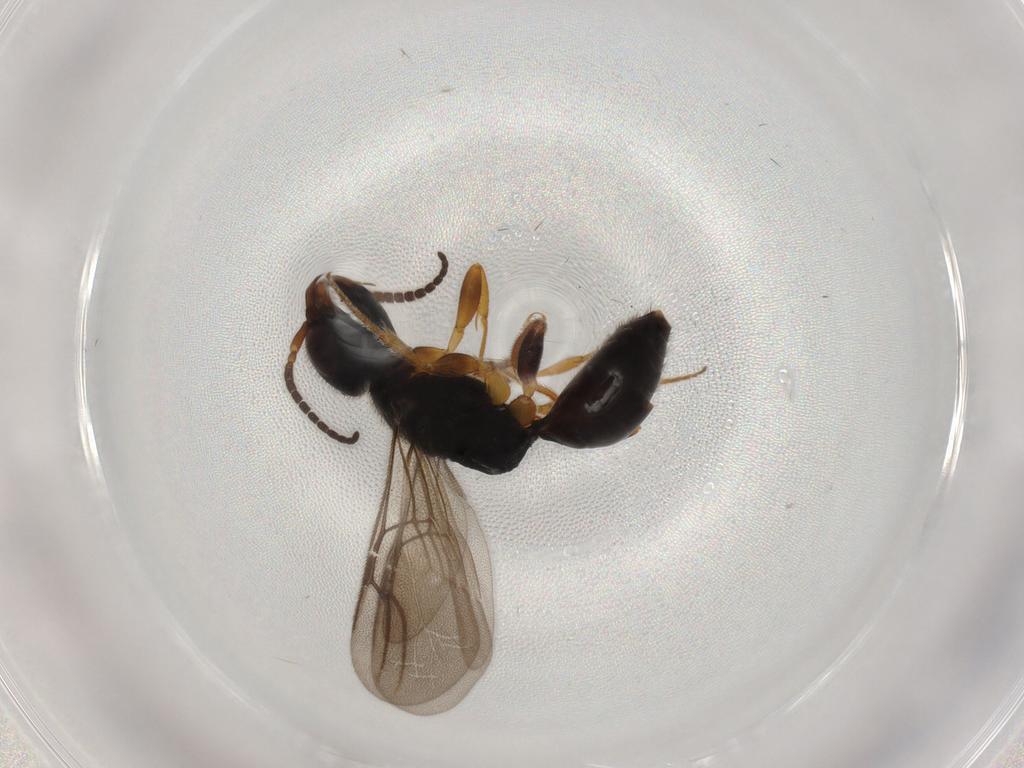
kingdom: Animalia
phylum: Arthropoda
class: Insecta
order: Hymenoptera
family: Bethylidae
